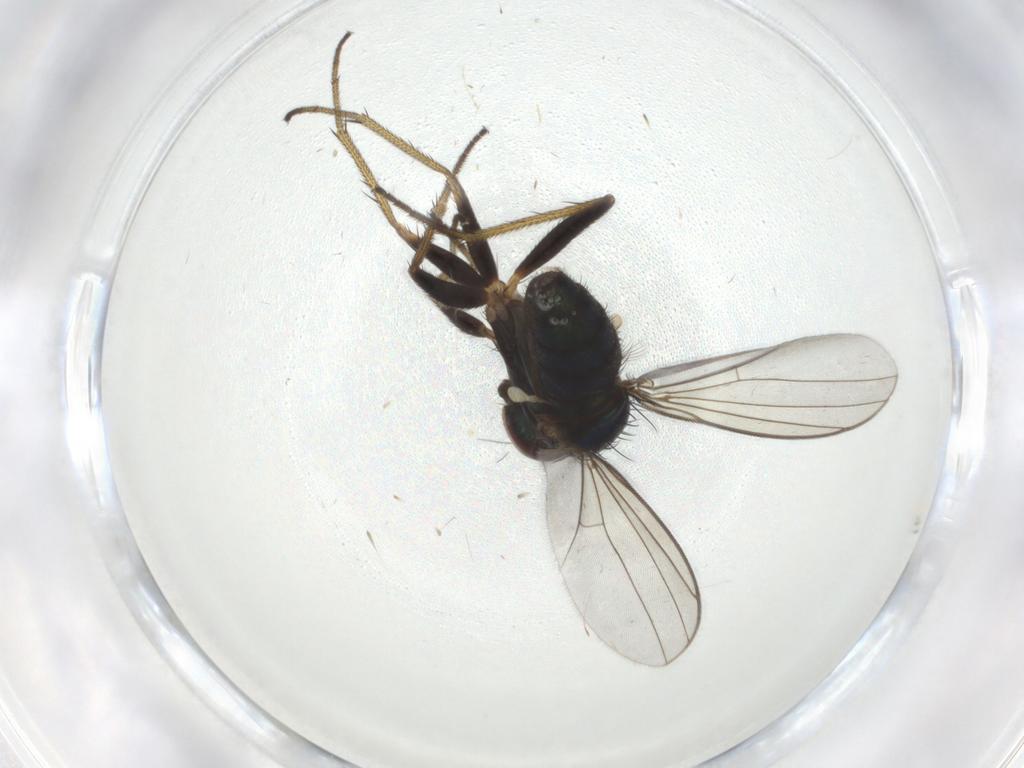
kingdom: Animalia
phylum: Arthropoda
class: Insecta
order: Diptera
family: Dolichopodidae
